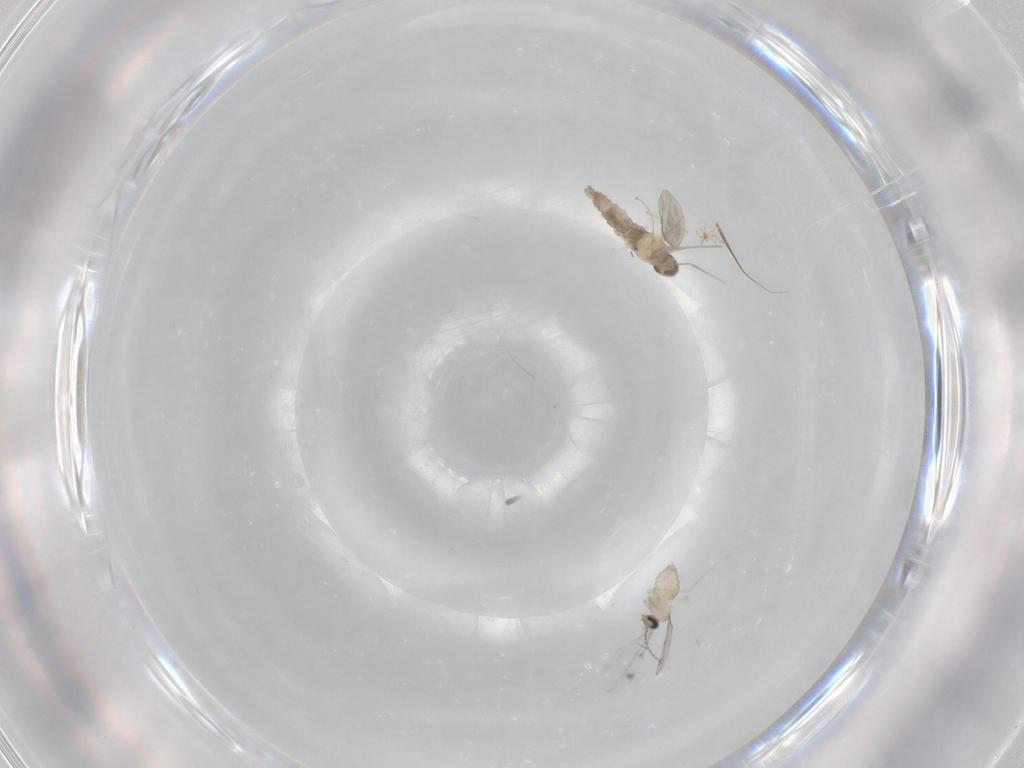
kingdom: Animalia
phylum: Arthropoda
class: Insecta
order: Diptera
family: Cecidomyiidae
